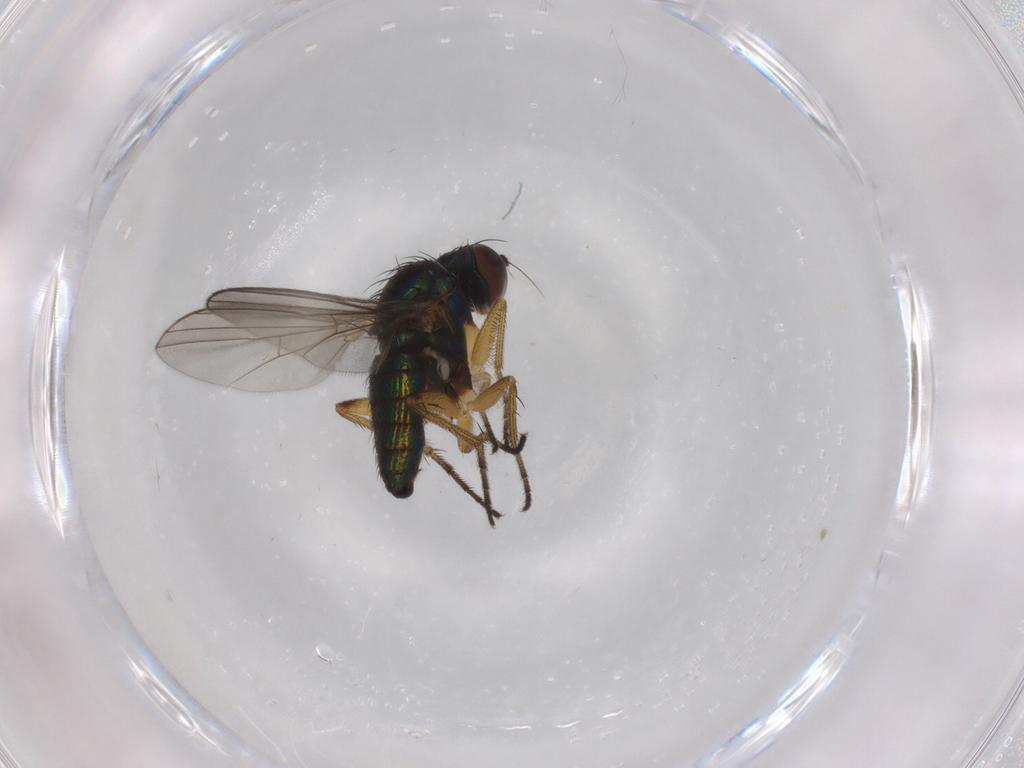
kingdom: Animalia
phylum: Arthropoda
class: Insecta
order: Diptera
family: Dolichopodidae
